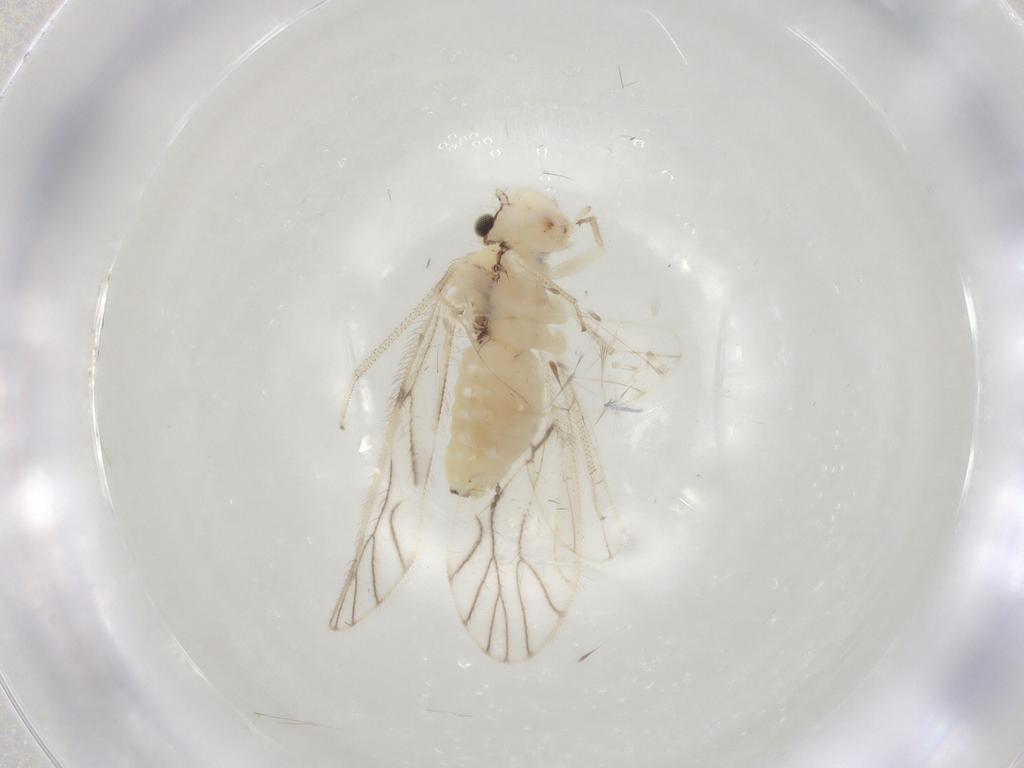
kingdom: Animalia
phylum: Arthropoda
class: Insecta
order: Psocodea
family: Philotarsidae
